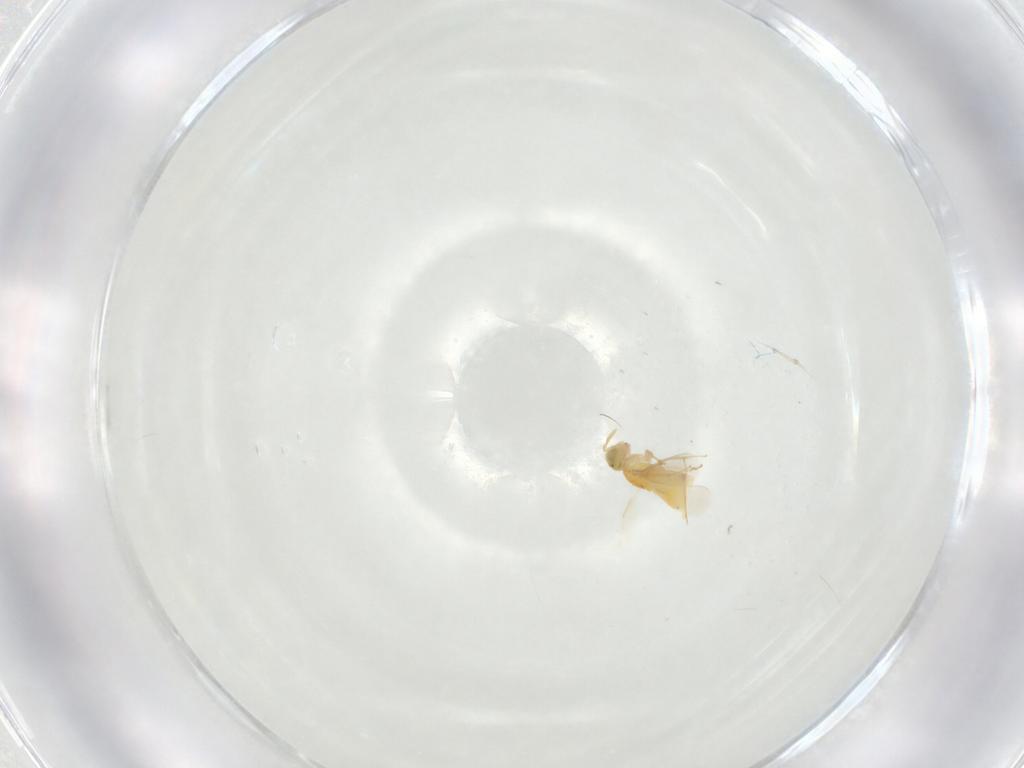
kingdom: Animalia
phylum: Arthropoda
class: Insecta
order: Hymenoptera
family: Aphelinidae
